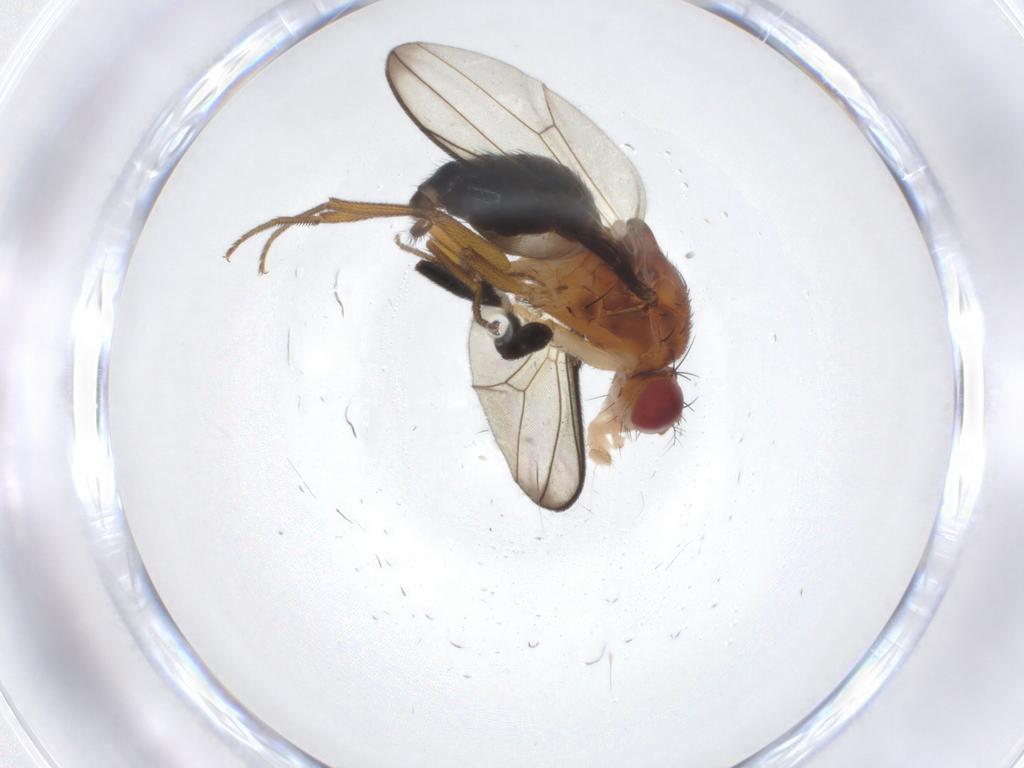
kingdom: Animalia
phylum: Arthropoda
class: Insecta
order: Diptera
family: Drosophilidae
